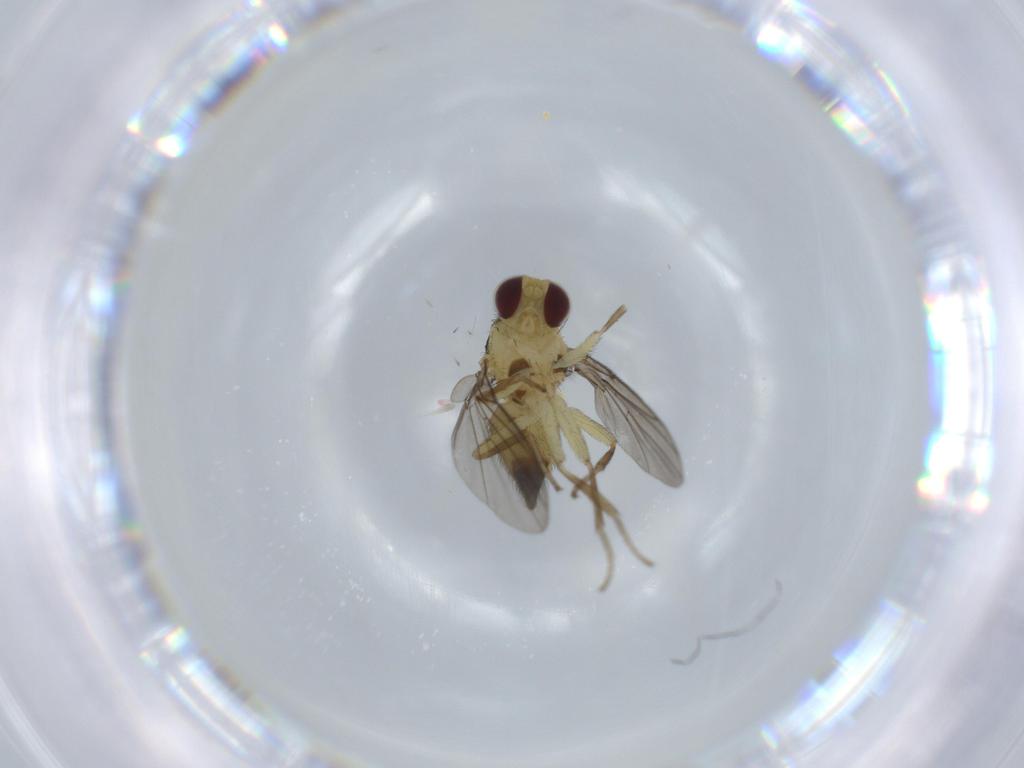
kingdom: Animalia
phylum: Arthropoda
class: Insecta
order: Diptera
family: Agromyzidae
